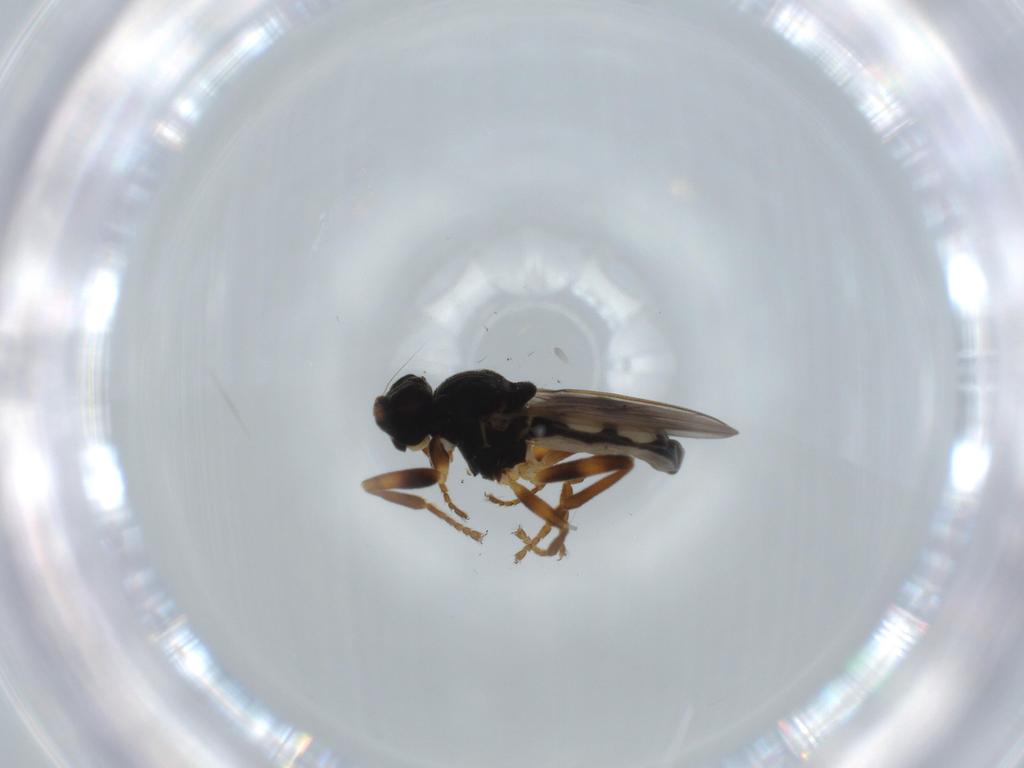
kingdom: Animalia
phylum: Arthropoda
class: Insecta
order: Diptera
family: Sphaeroceridae
